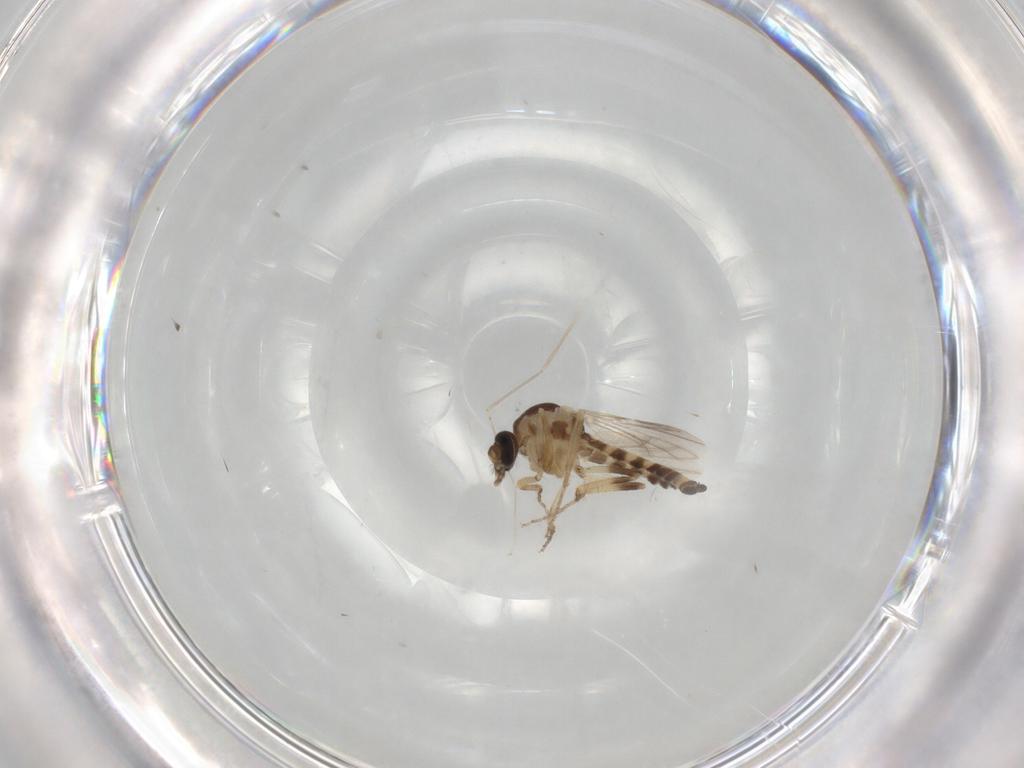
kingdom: Animalia
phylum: Arthropoda
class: Insecta
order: Diptera
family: Ceratopogonidae
